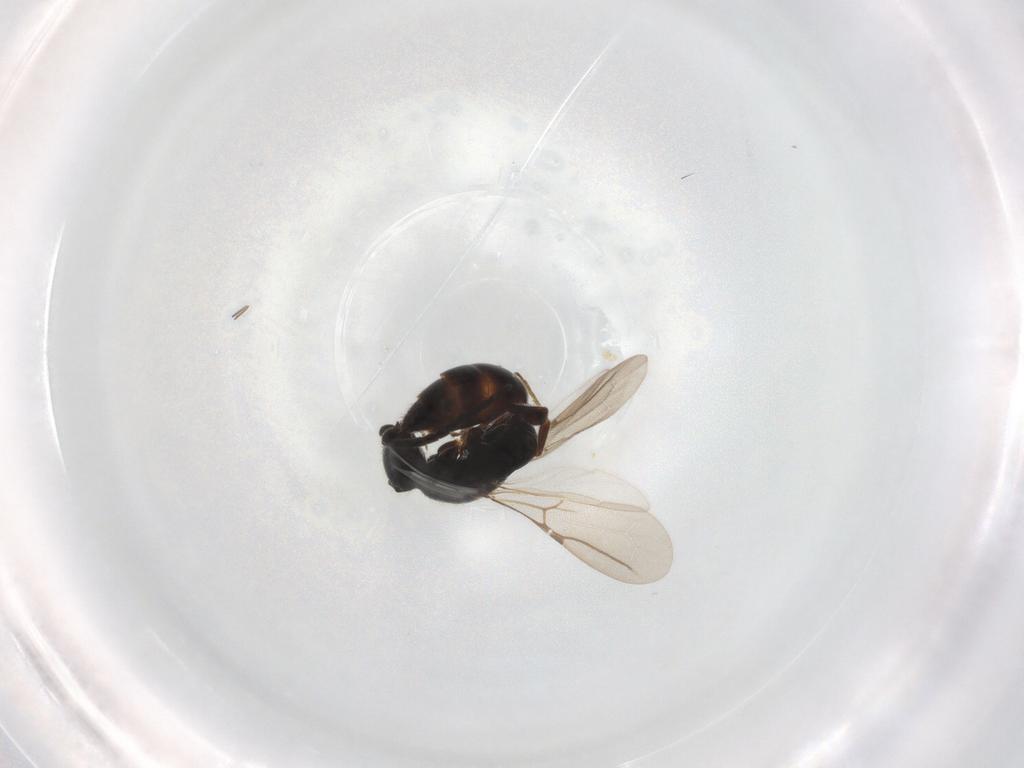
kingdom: Animalia
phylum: Arthropoda
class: Insecta
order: Hymenoptera
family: Bethylidae
